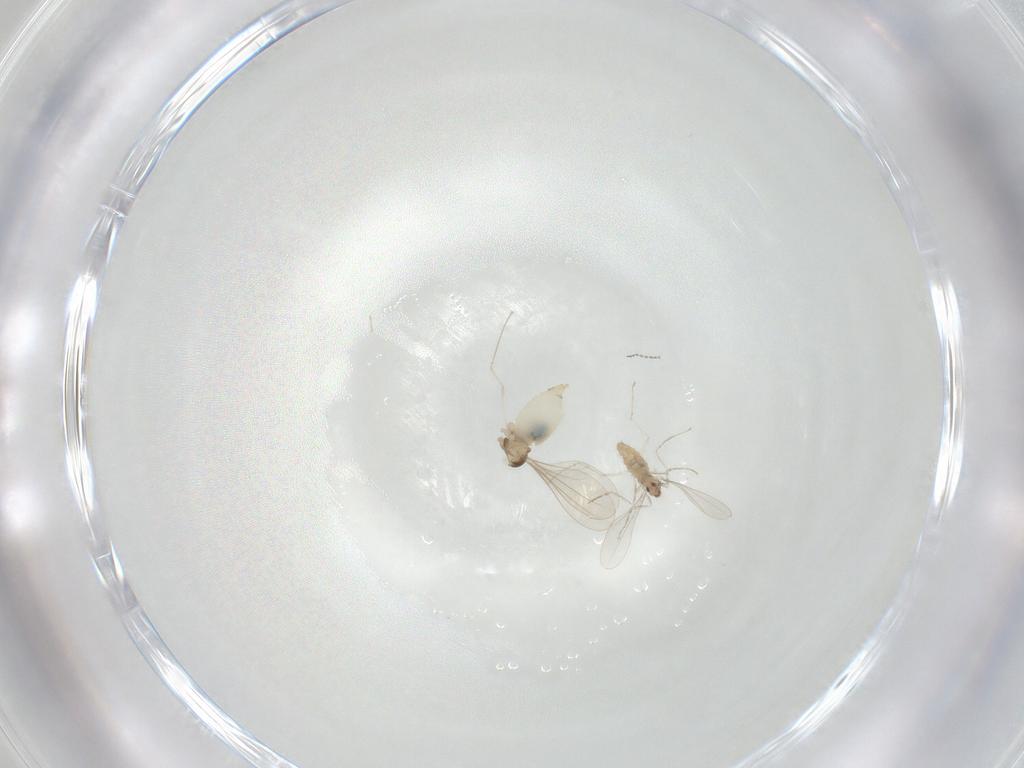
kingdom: Animalia
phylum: Arthropoda
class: Insecta
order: Diptera
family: Cecidomyiidae
